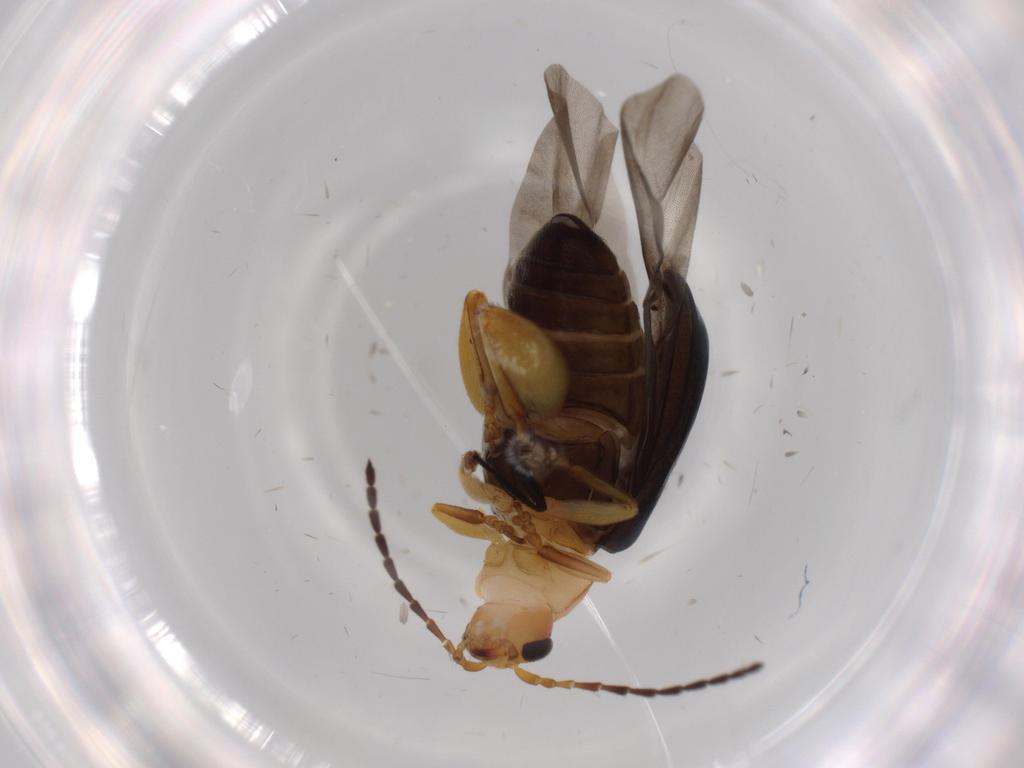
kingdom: Animalia
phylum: Arthropoda
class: Insecta
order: Coleoptera
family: Chrysomelidae
